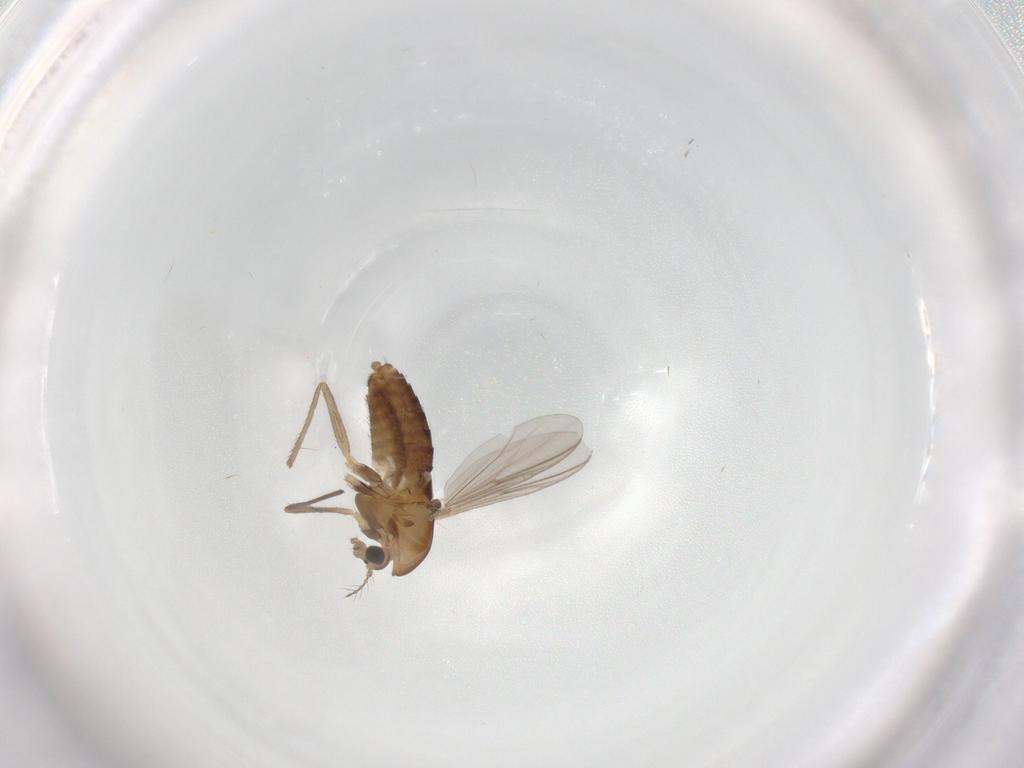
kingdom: Animalia
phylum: Arthropoda
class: Insecta
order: Diptera
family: Chironomidae
